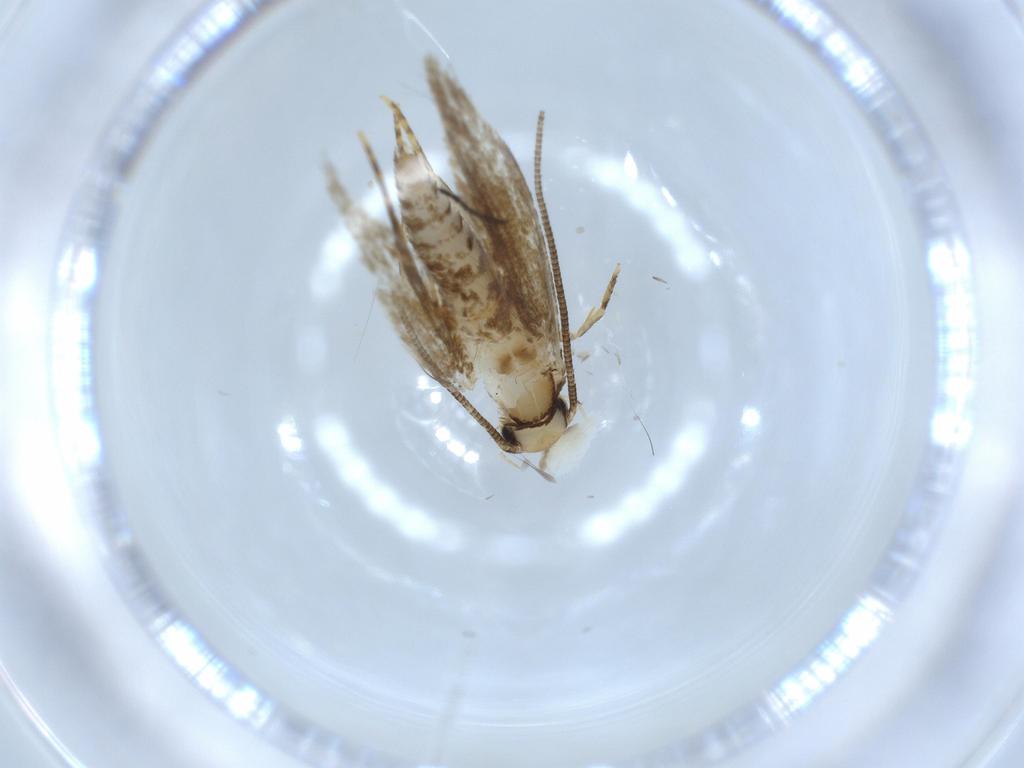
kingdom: Animalia
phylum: Arthropoda
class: Insecta
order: Lepidoptera
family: Tineidae
